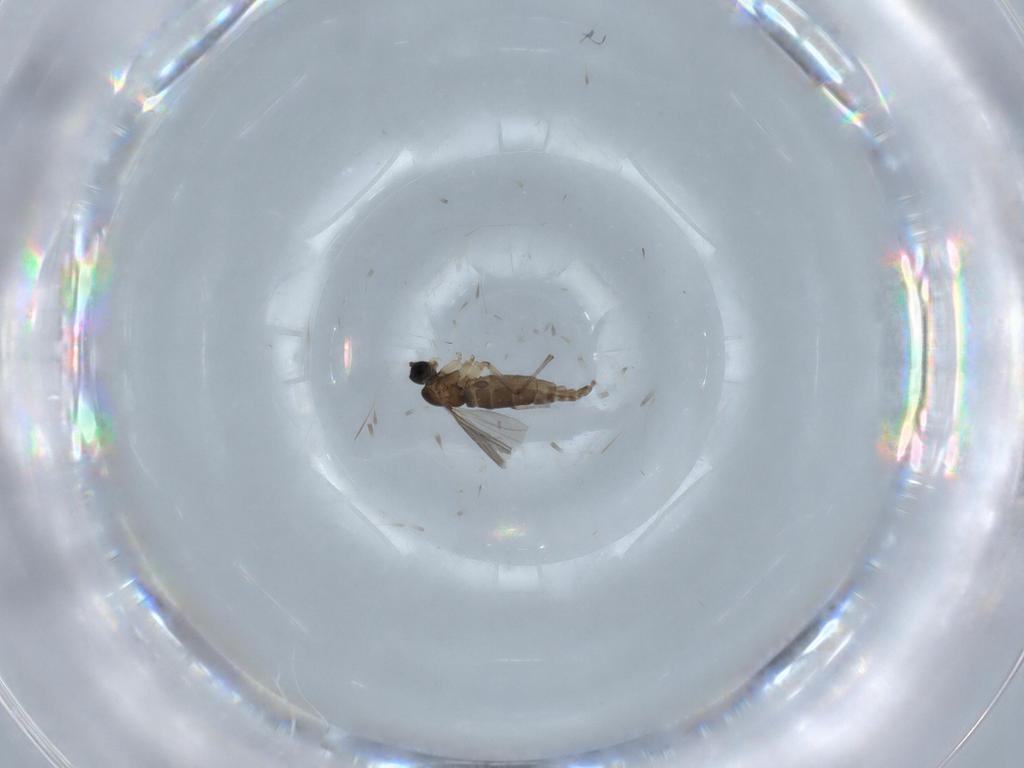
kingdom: Animalia
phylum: Arthropoda
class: Insecta
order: Diptera
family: Sciaridae
